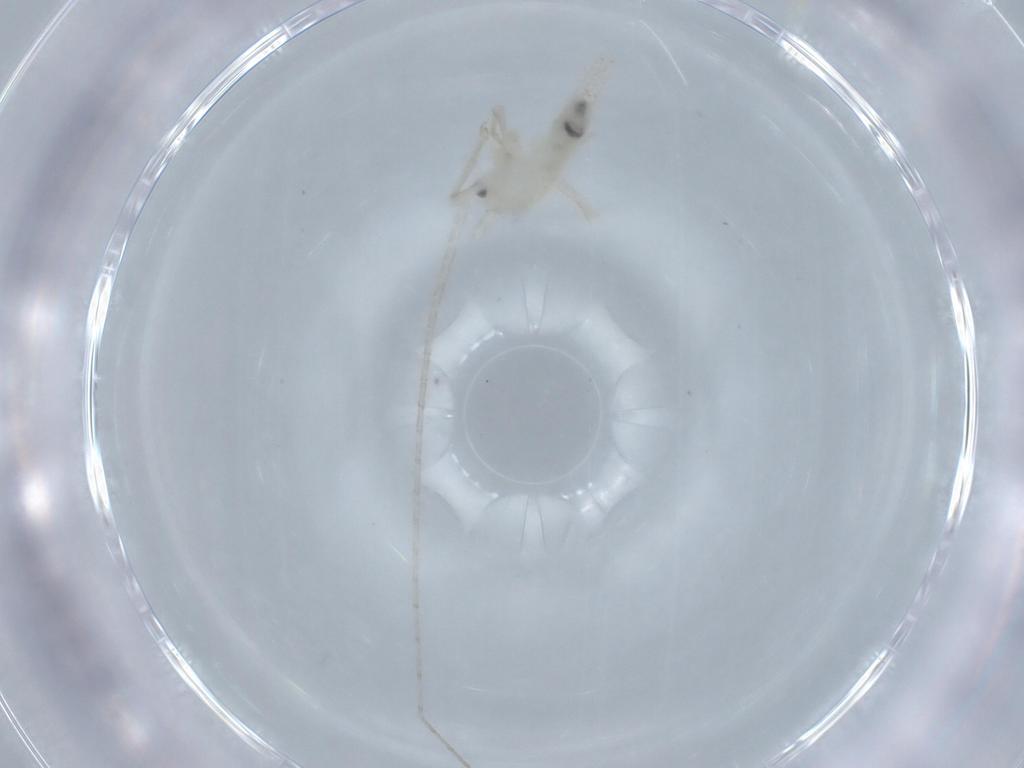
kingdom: Animalia
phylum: Arthropoda
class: Insecta
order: Orthoptera
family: Trigonidiidae
